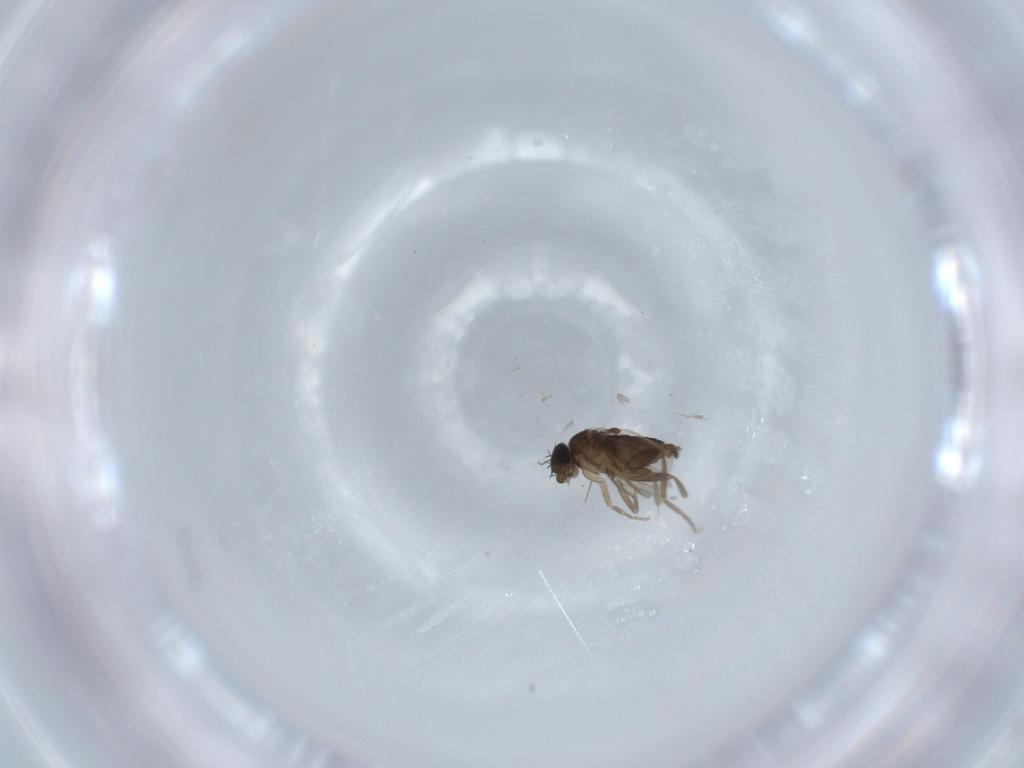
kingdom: Animalia
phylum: Arthropoda
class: Insecta
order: Diptera
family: Phoridae
